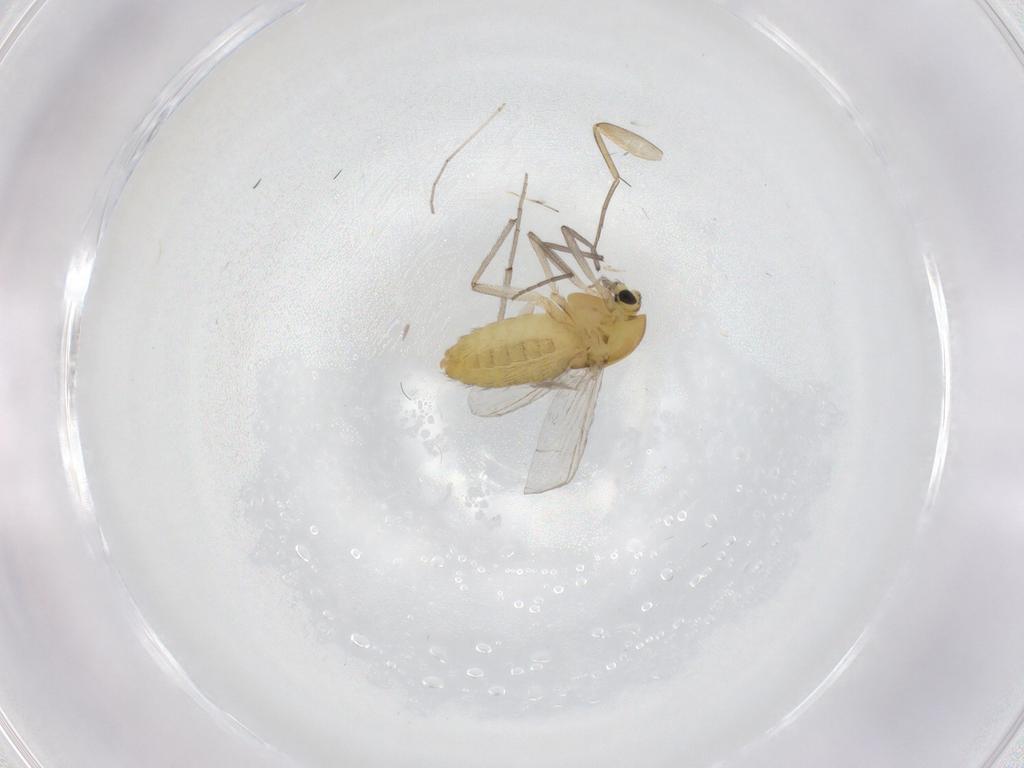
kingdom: Animalia
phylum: Arthropoda
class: Insecta
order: Diptera
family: Chironomidae
